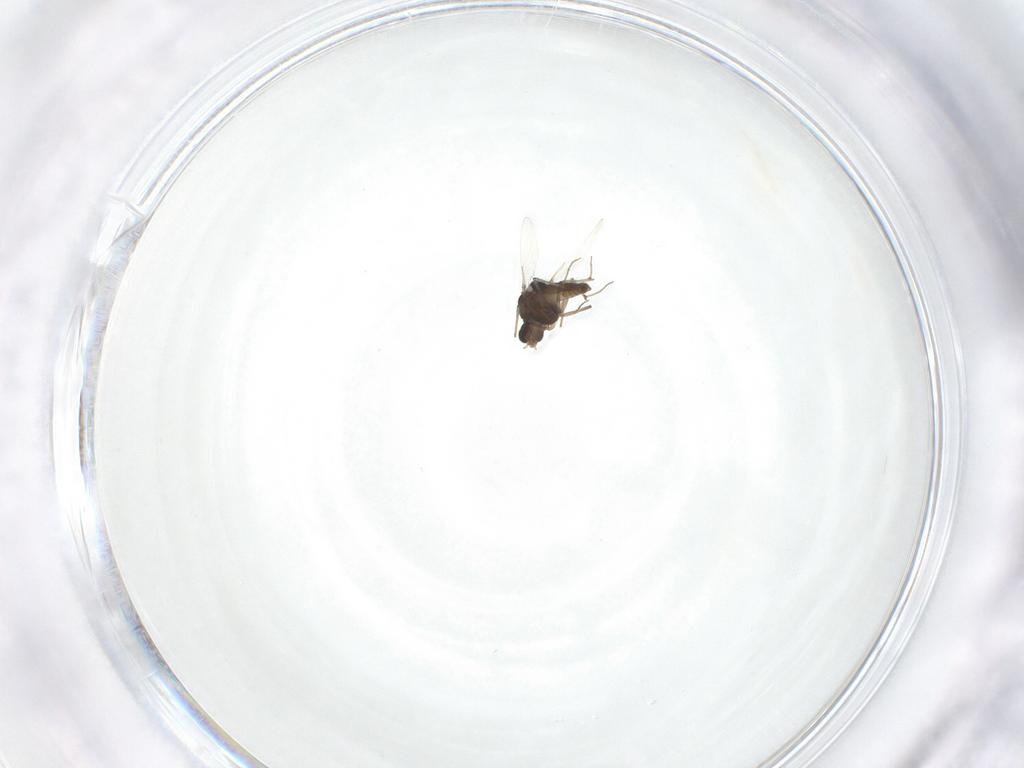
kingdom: Animalia
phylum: Arthropoda
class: Insecta
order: Diptera
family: Chironomidae
